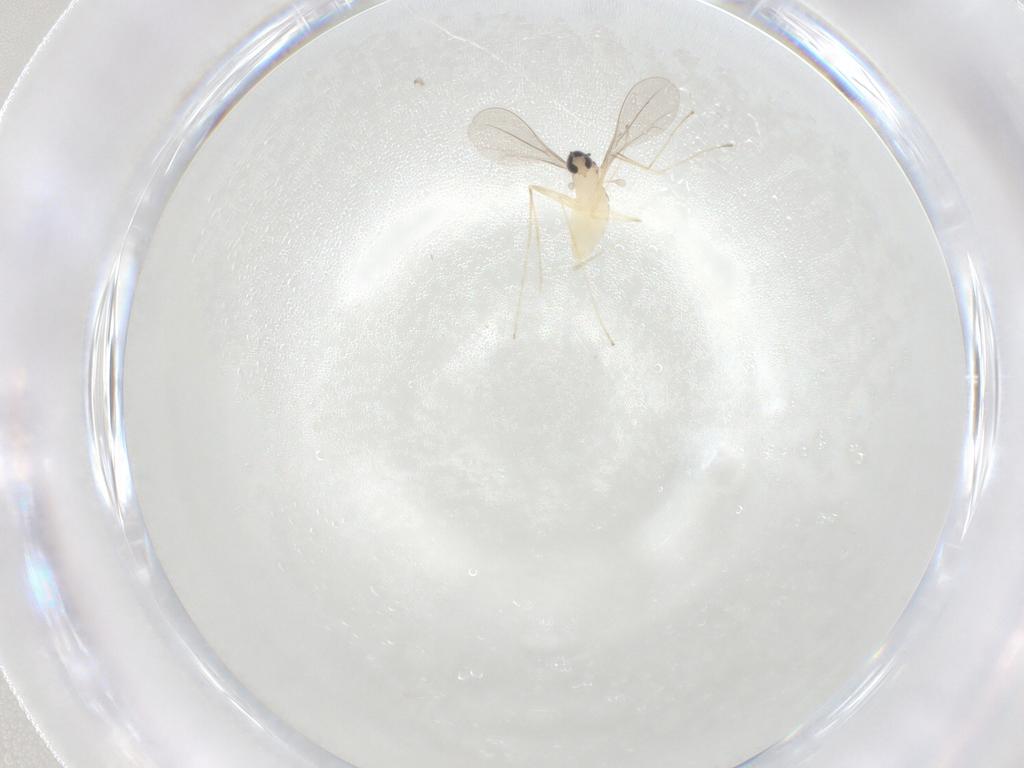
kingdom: Animalia
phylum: Arthropoda
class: Insecta
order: Diptera
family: Cecidomyiidae
